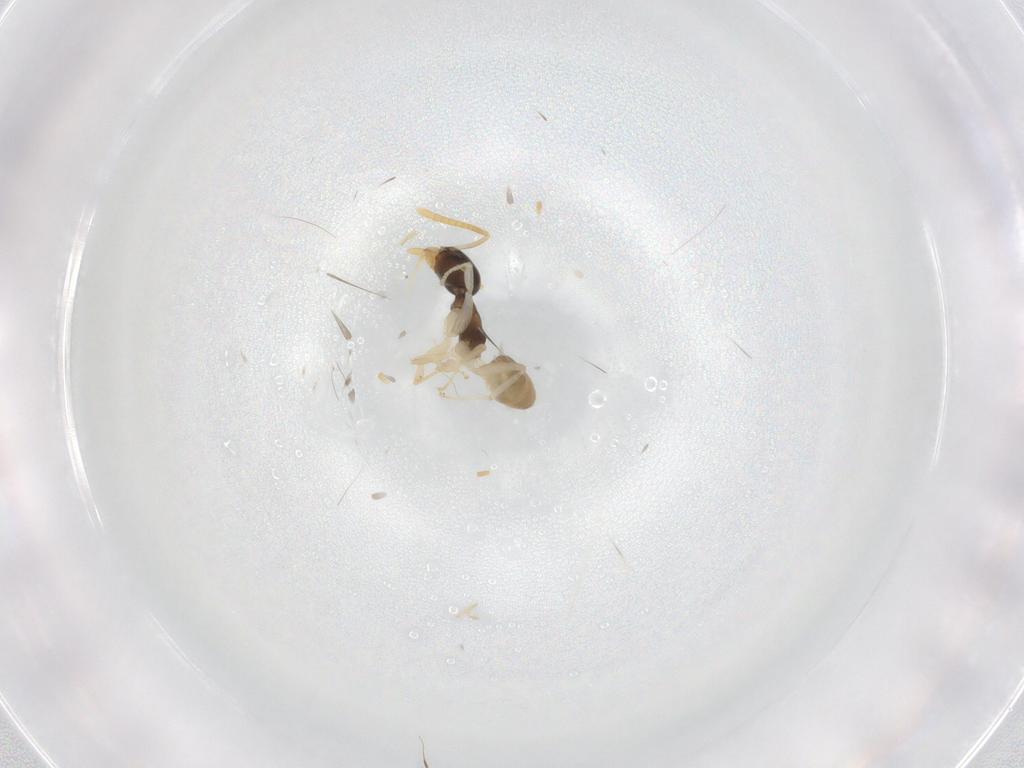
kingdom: Animalia
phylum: Arthropoda
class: Insecta
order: Hymenoptera
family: Formicidae
